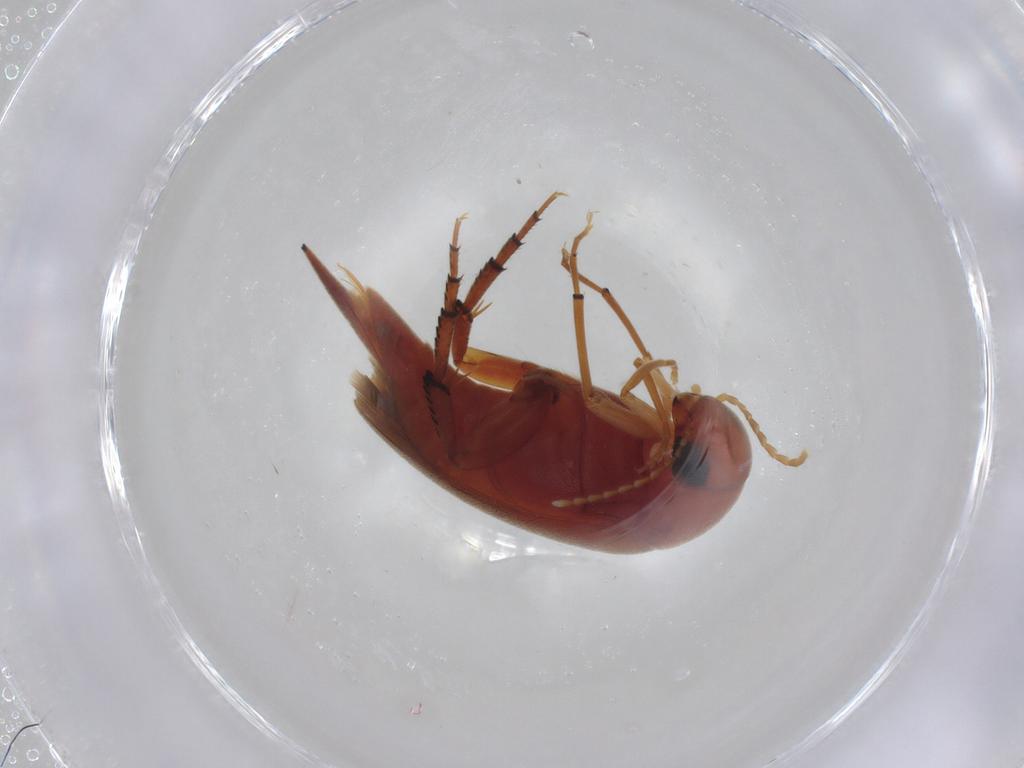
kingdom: Animalia
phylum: Arthropoda
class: Insecta
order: Coleoptera
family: Mordellidae
